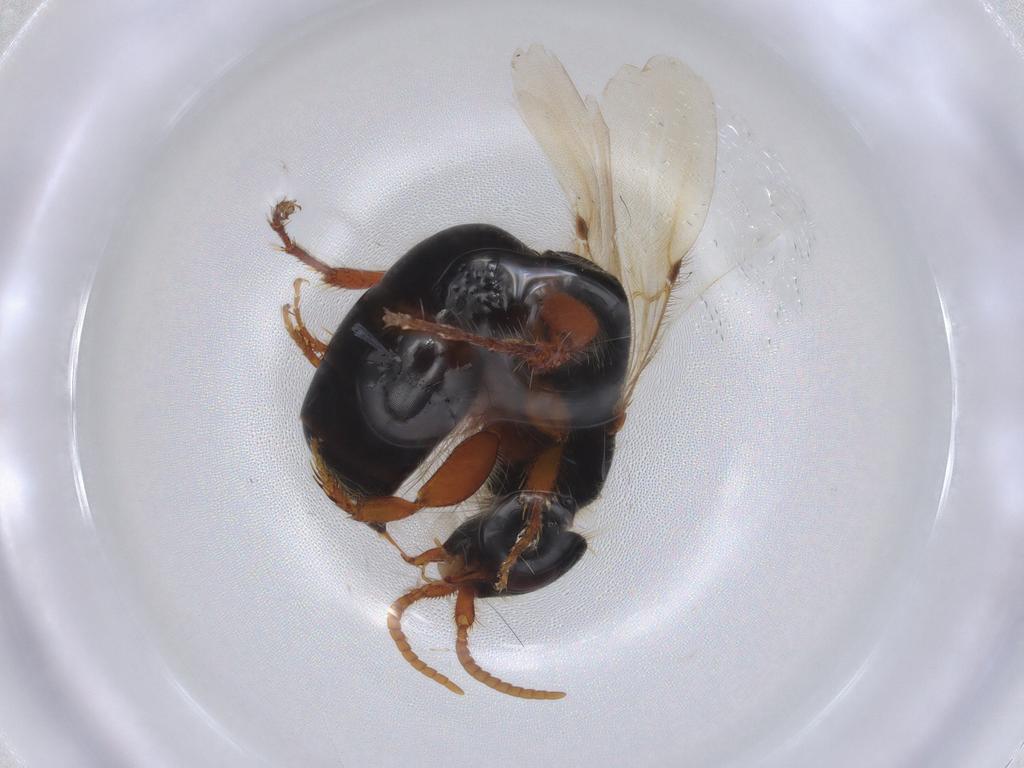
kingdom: Animalia
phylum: Arthropoda
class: Insecta
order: Hymenoptera
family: Bethylidae
